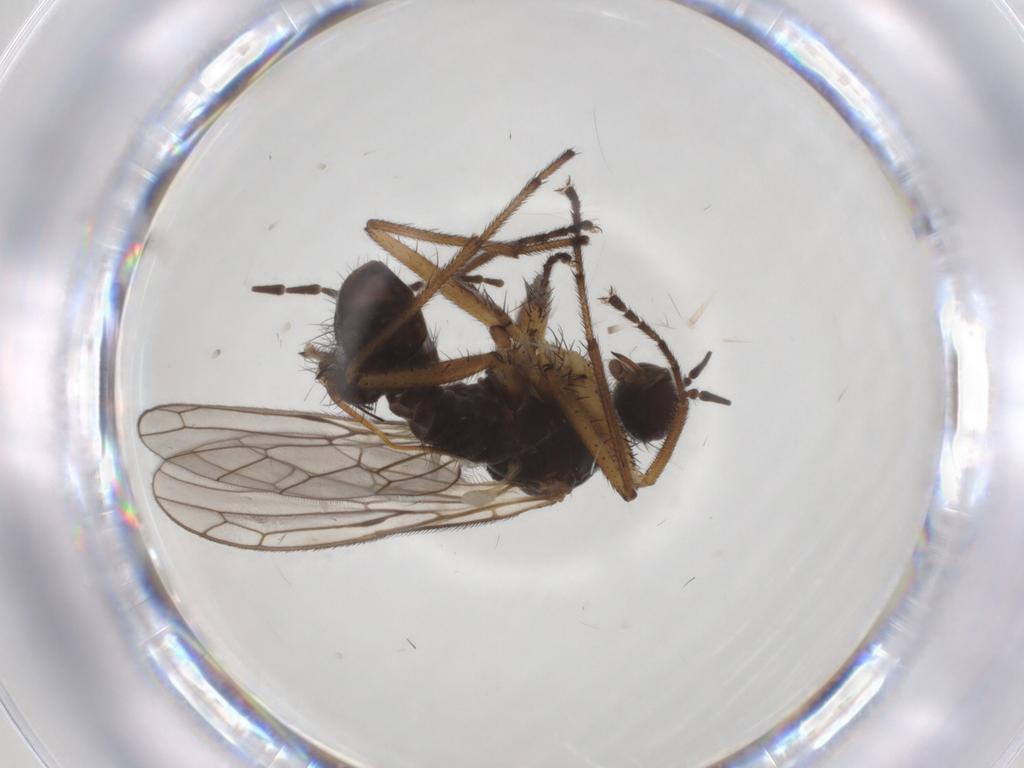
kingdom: Animalia
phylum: Arthropoda
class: Insecta
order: Diptera
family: Empididae
